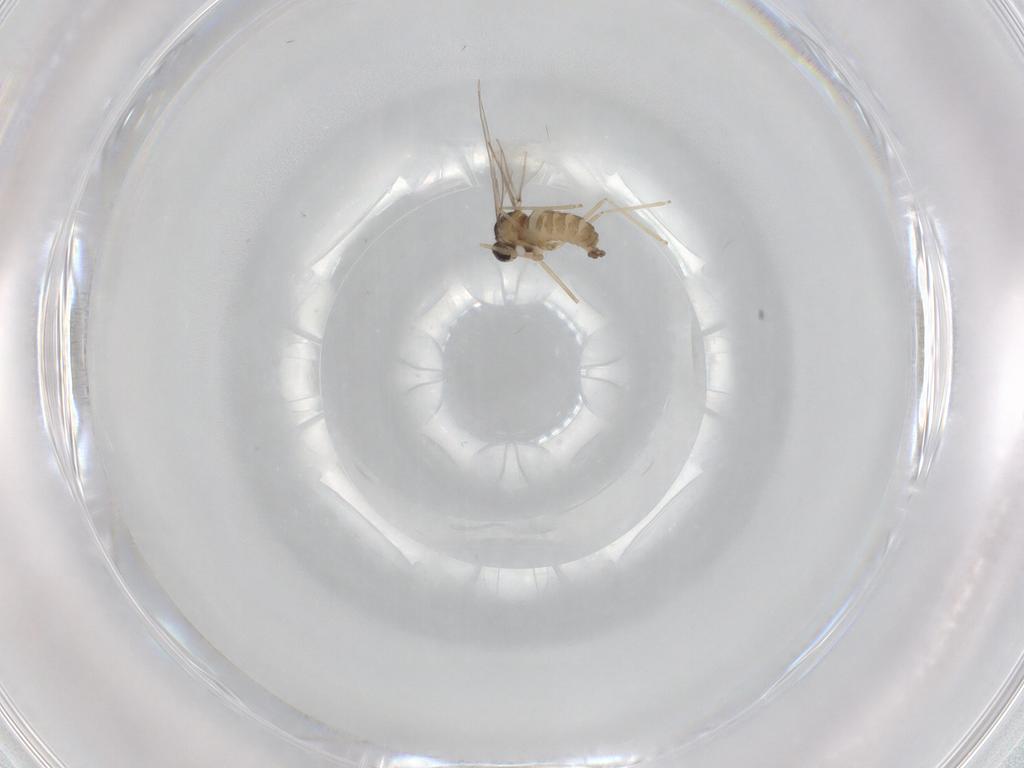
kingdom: Animalia
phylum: Arthropoda
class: Insecta
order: Diptera
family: Cecidomyiidae
